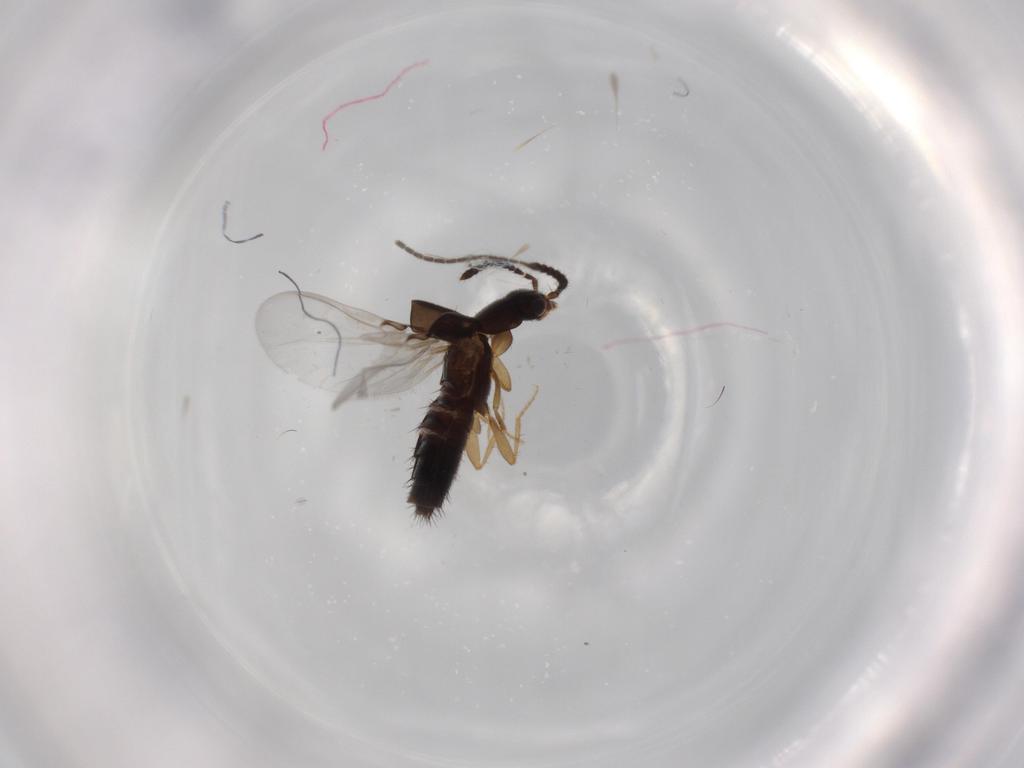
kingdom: Animalia
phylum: Arthropoda
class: Insecta
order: Coleoptera
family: Staphylinidae
